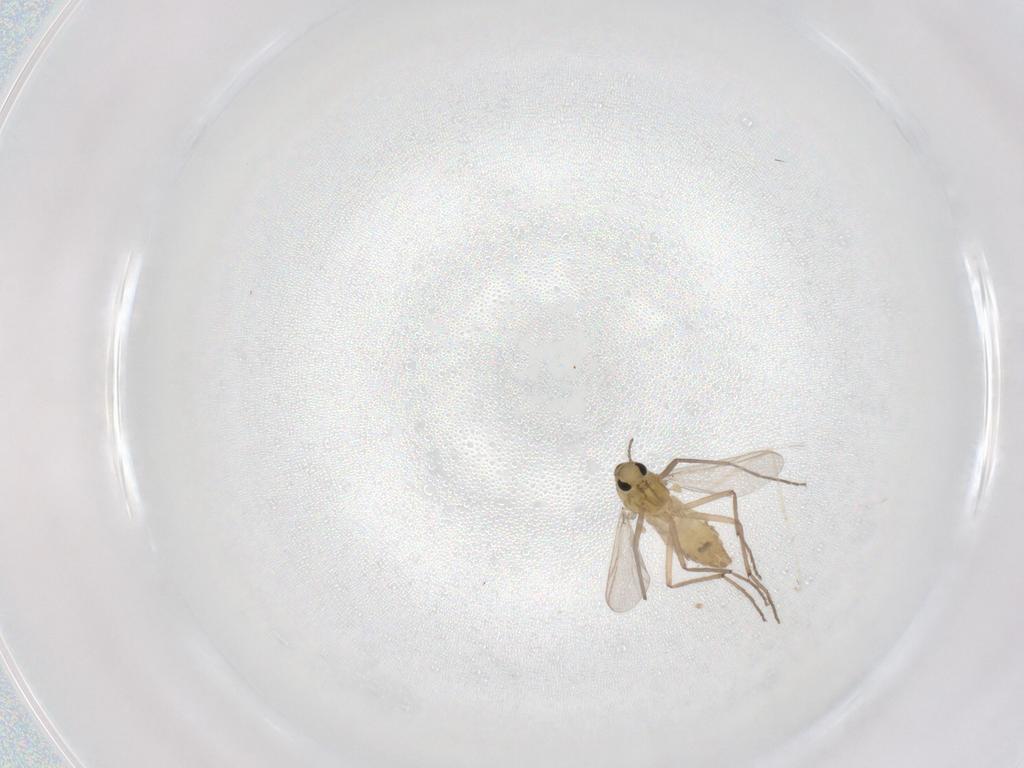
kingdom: Animalia
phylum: Arthropoda
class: Insecta
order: Diptera
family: Chironomidae
